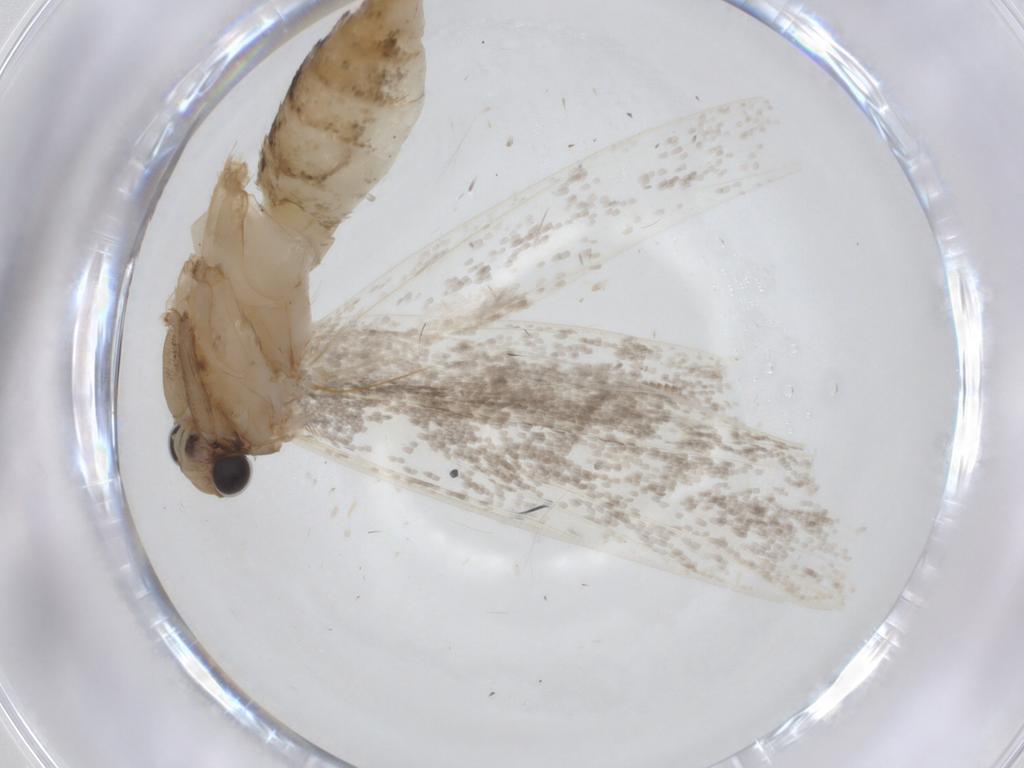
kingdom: Animalia
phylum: Arthropoda
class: Insecta
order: Lepidoptera
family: Tineidae
